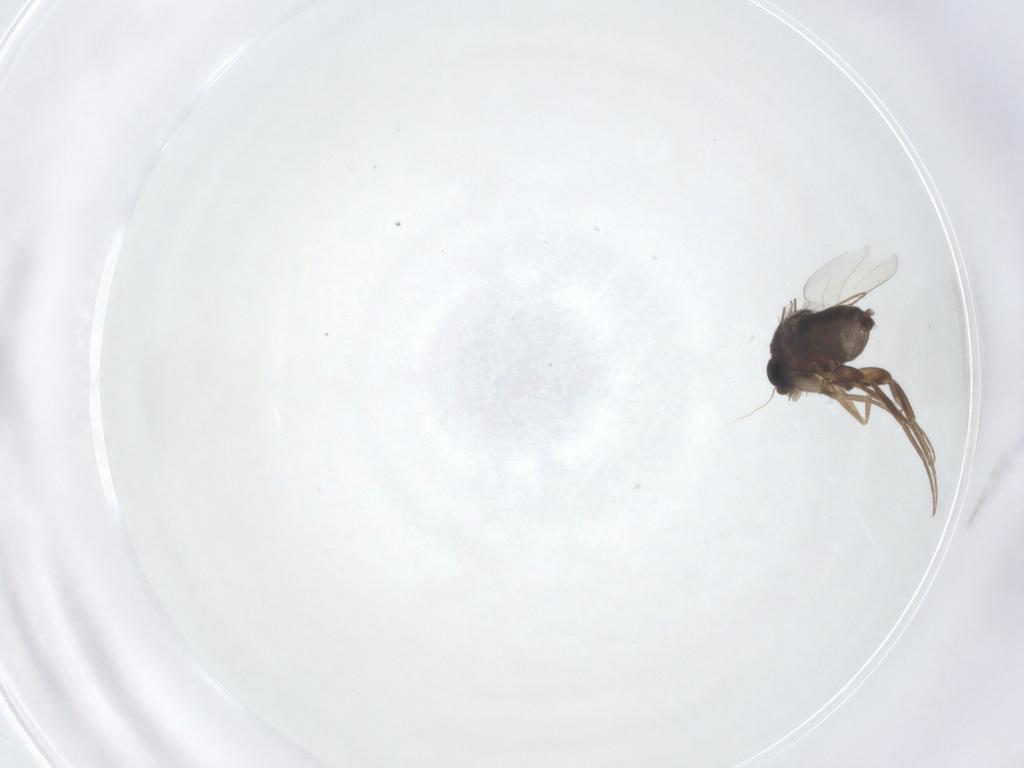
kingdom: Animalia
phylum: Arthropoda
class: Insecta
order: Diptera
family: Phoridae
